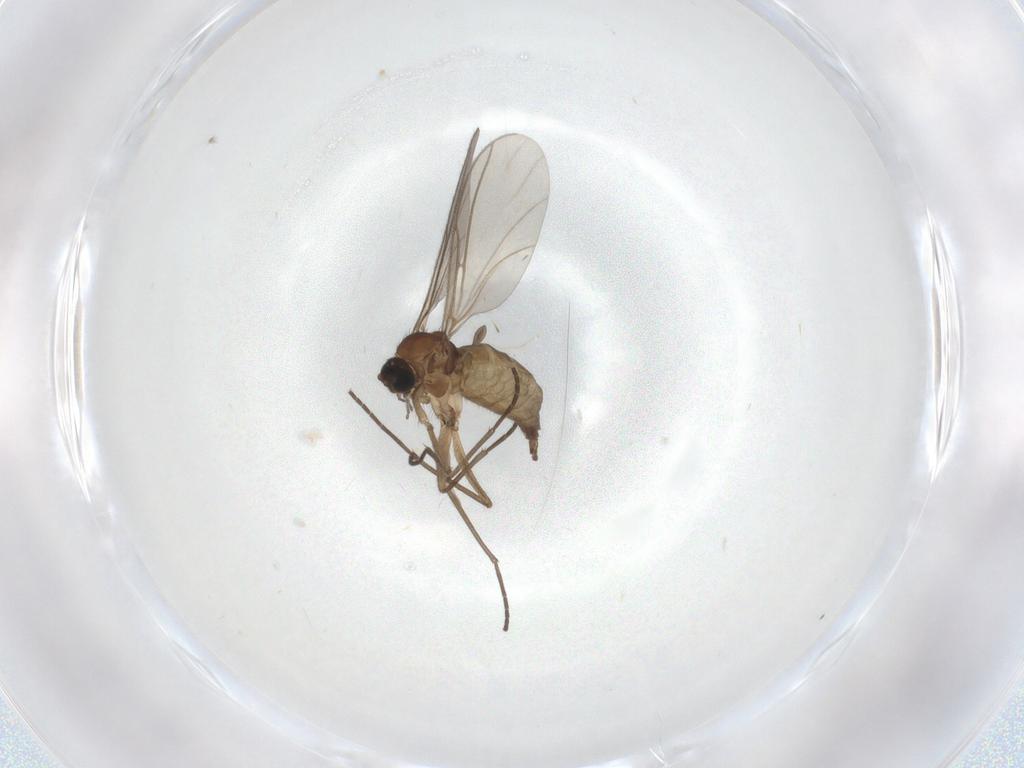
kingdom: Animalia
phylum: Arthropoda
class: Insecta
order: Diptera
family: Sciaridae
